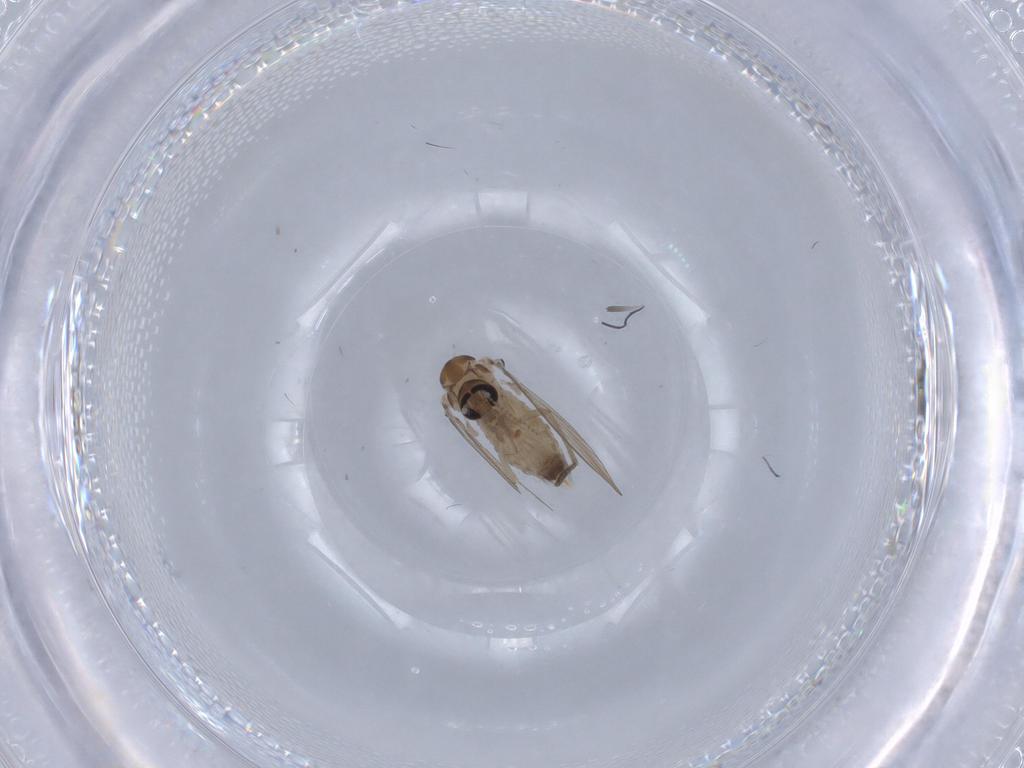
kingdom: Animalia
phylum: Arthropoda
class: Insecta
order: Diptera
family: Psychodidae
